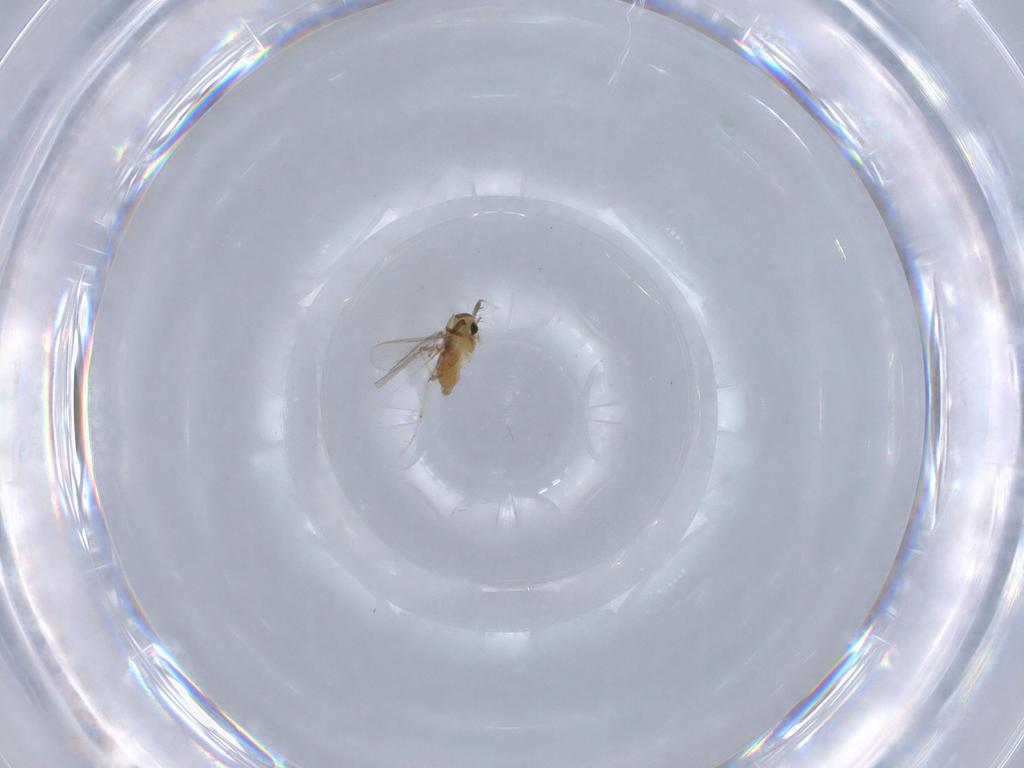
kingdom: Animalia
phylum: Arthropoda
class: Insecta
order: Diptera
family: Chironomidae
